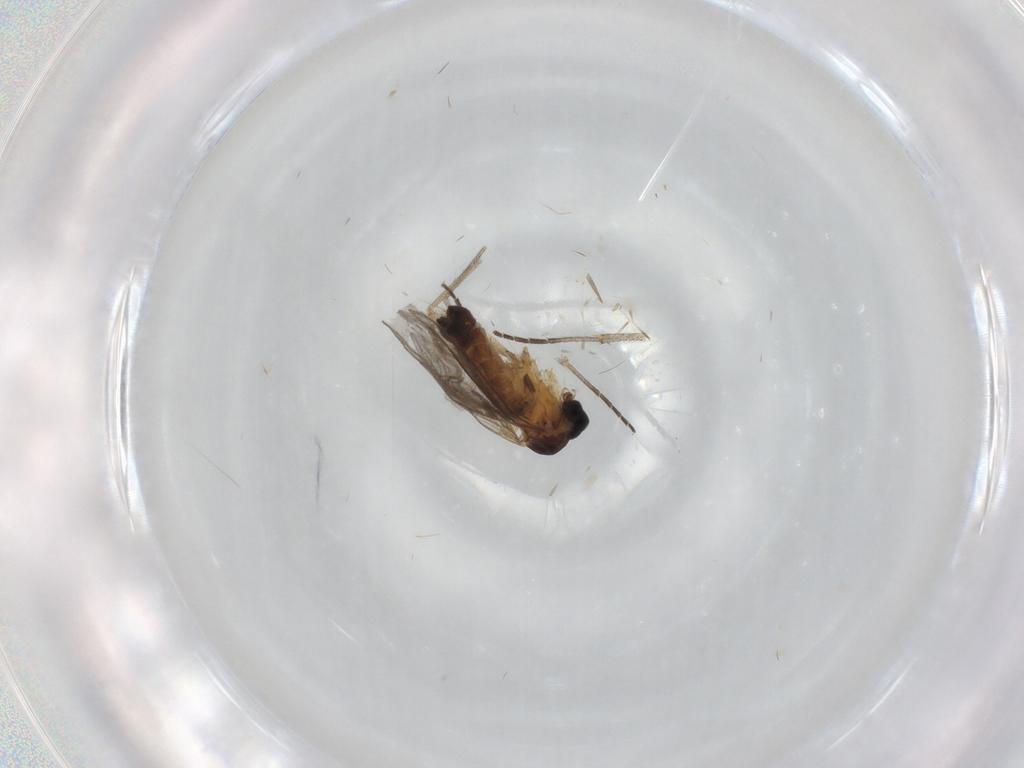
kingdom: Animalia
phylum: Arthropoda
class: Insecta
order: Diptera
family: Sciaridae
